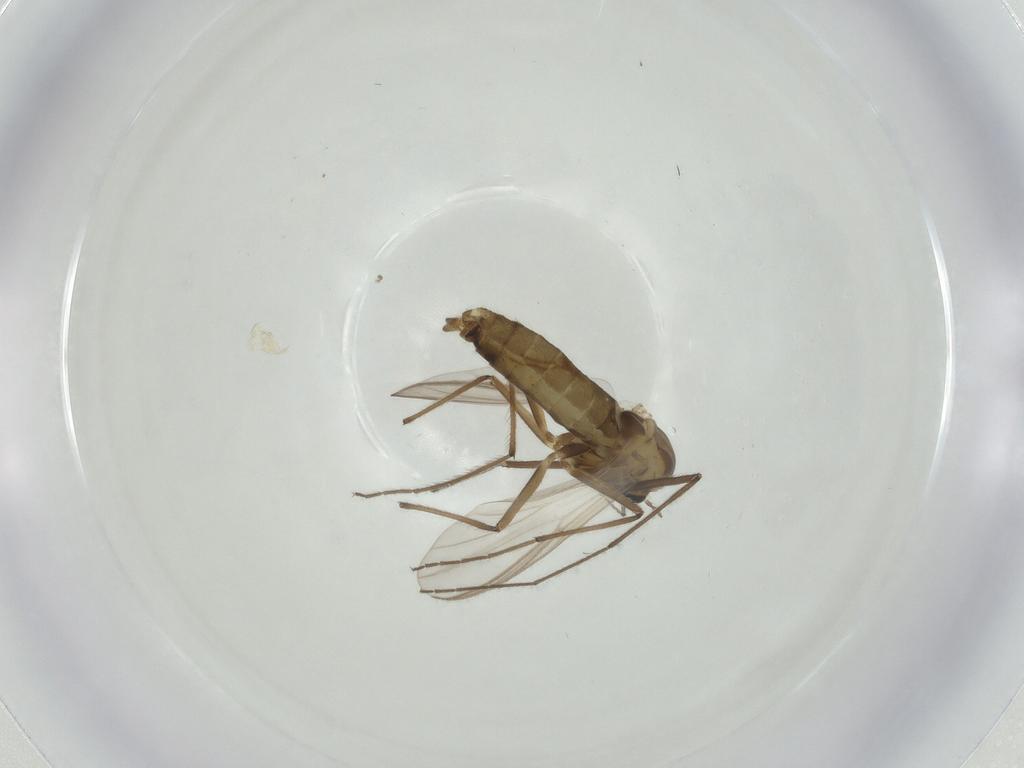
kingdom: Animalia
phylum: Arthropoda
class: Insecta
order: Diptera
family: Chironomidae
